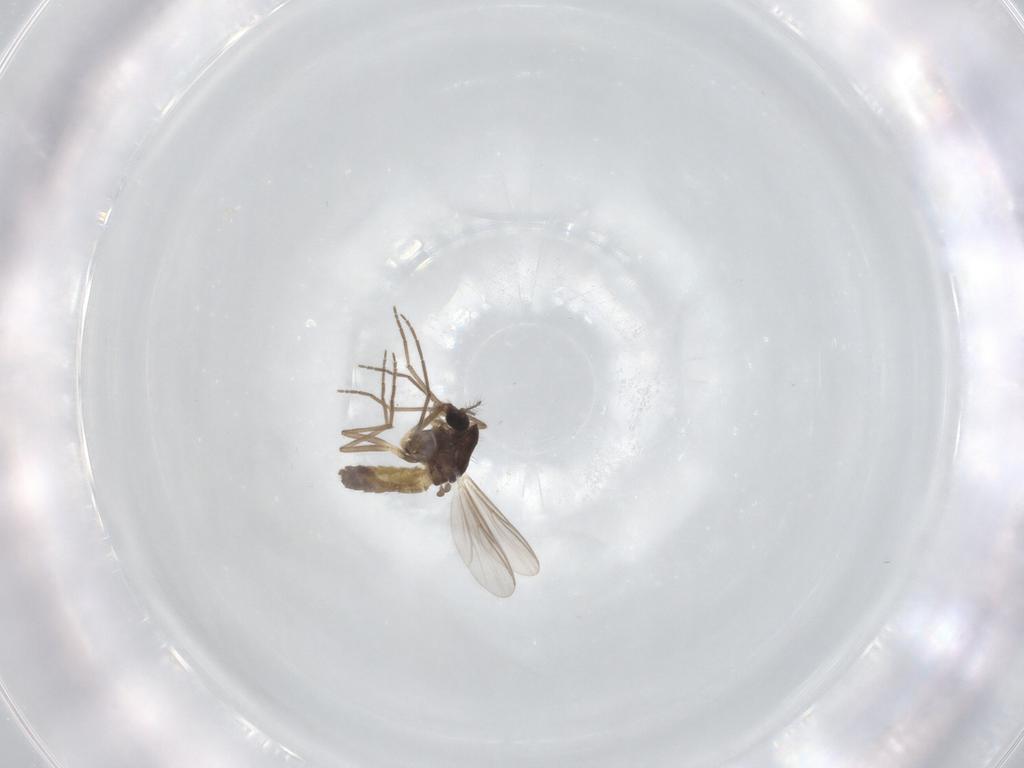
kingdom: Animalia
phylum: Arthropoda
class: Insecta
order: Diptera
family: Chironomidae
